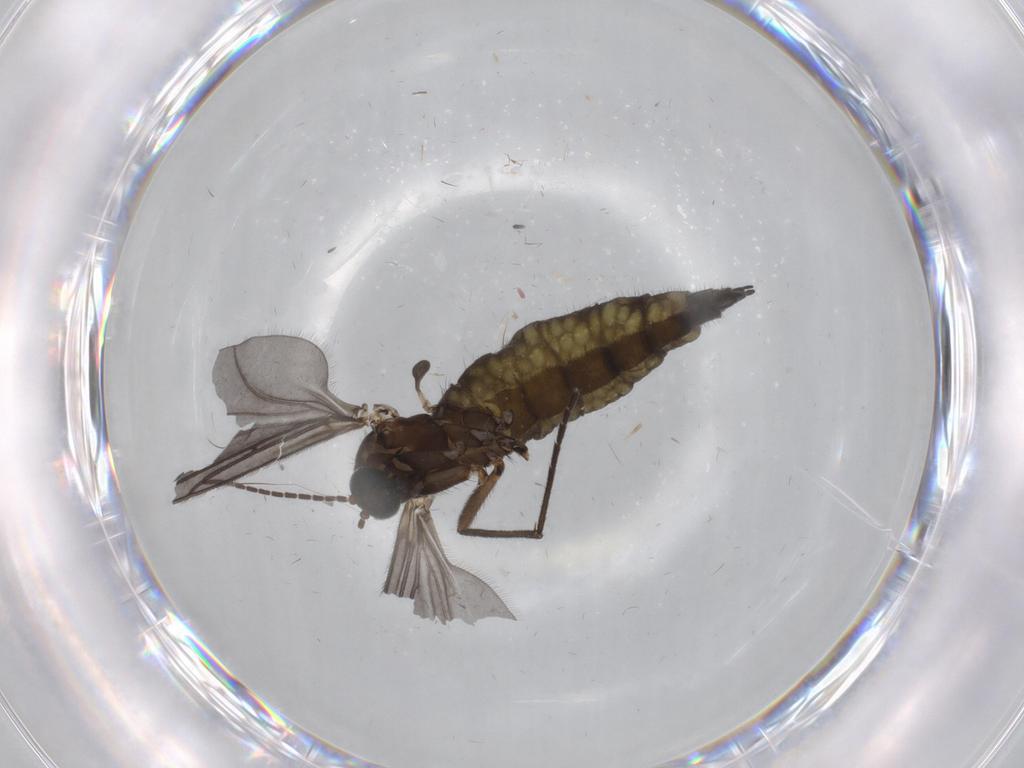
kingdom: Animalia
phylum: Arthropoda
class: Insecta
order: Diptera
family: Sciaridae
